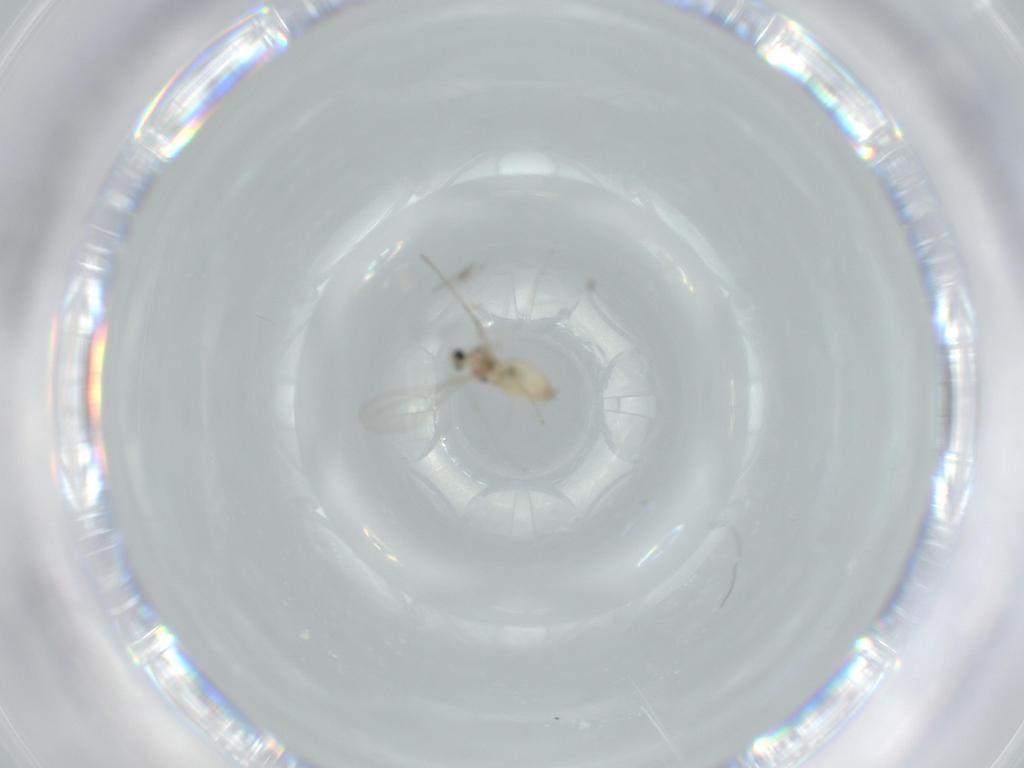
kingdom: Animalia
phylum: Arthropoda
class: Insecta
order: Diptera
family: Cecidomyiidae
